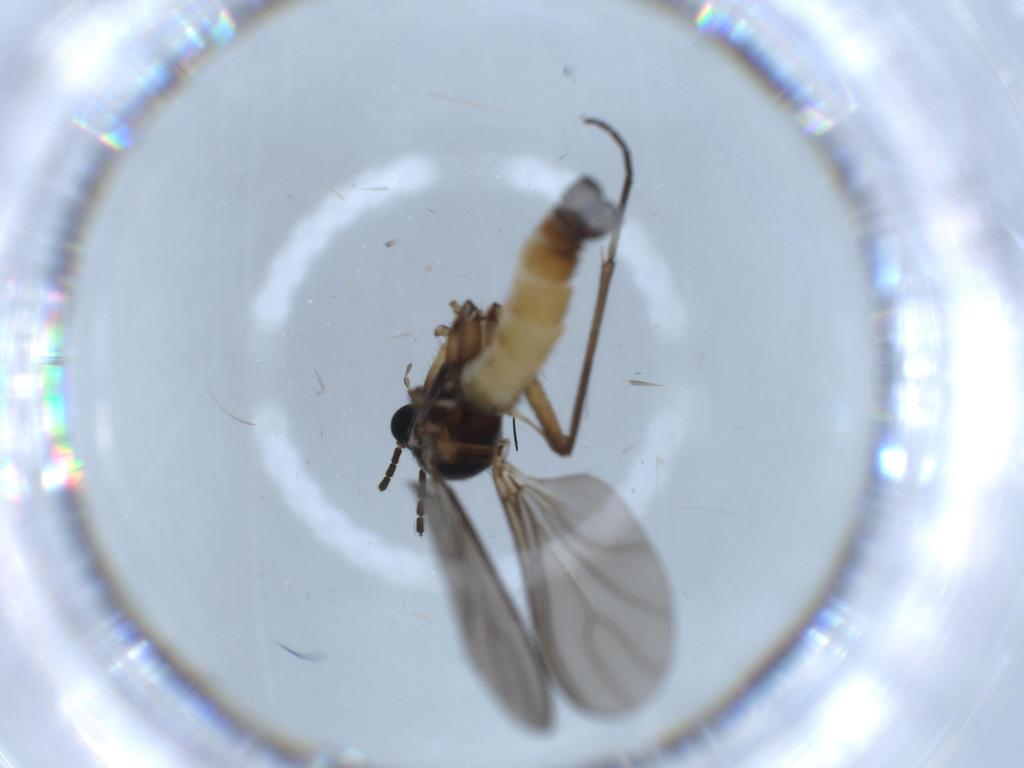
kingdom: Animalia
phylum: Arthropoda
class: Insecta
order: Diptera
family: Sciaridae
